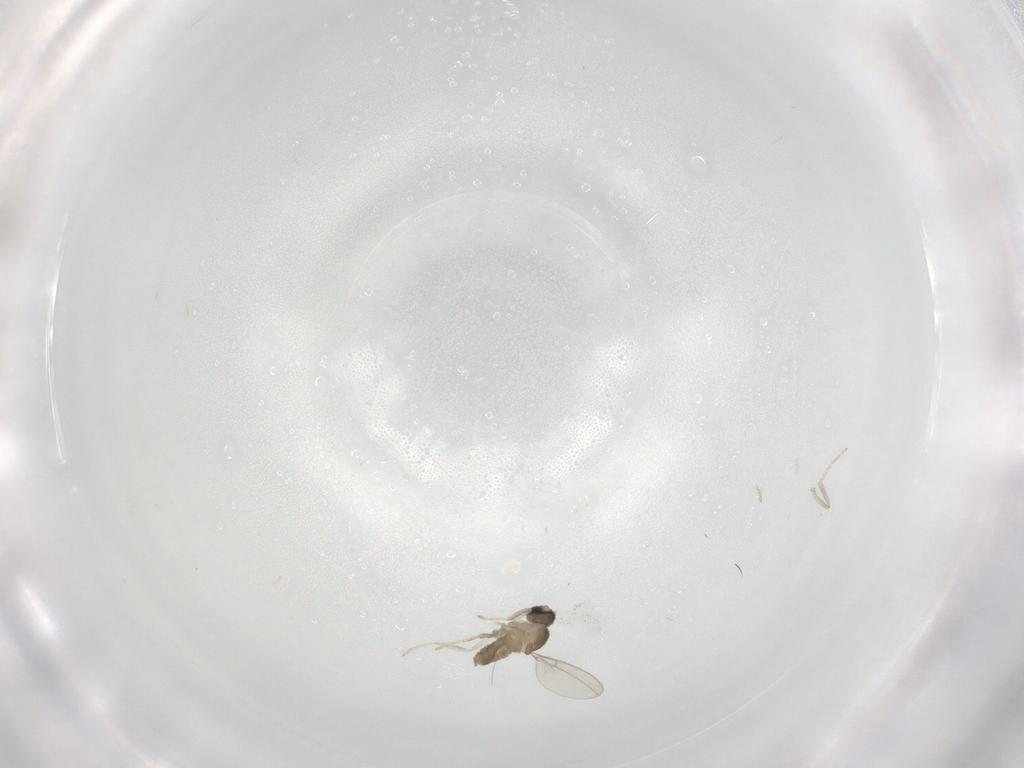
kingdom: Animalia
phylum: Arthropoda
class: Insecta
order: Diptera
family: Cecidomyiidae
